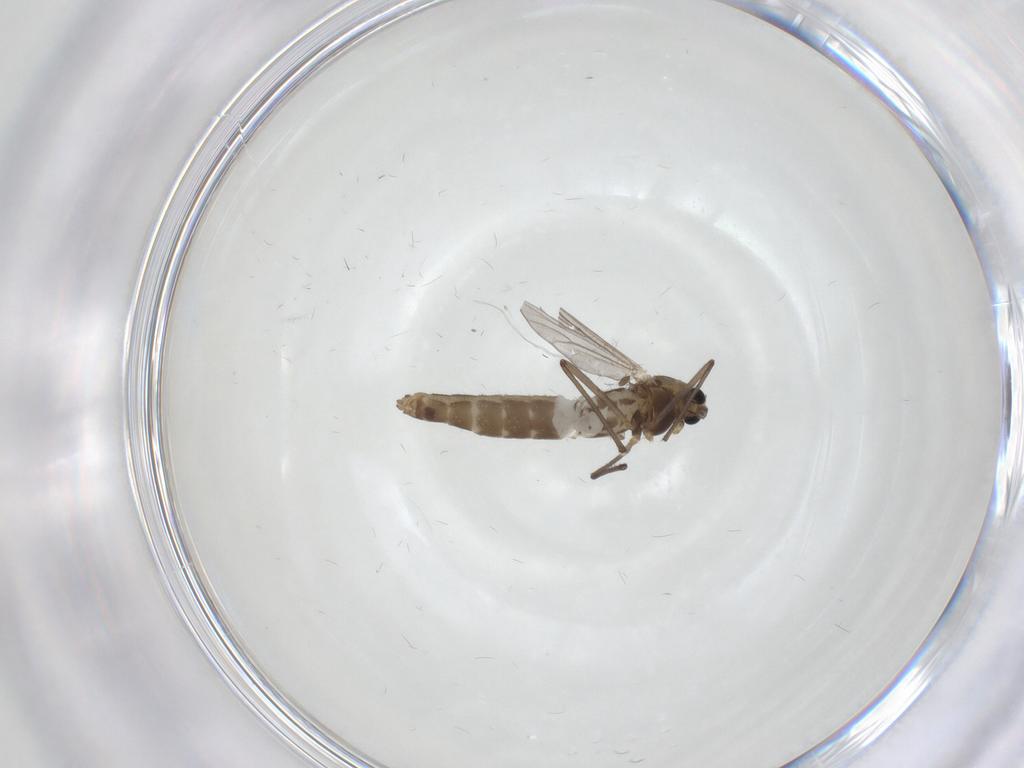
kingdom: Animalia
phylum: Arthropoda
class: Insecta
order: Diptera
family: Chironomidae
